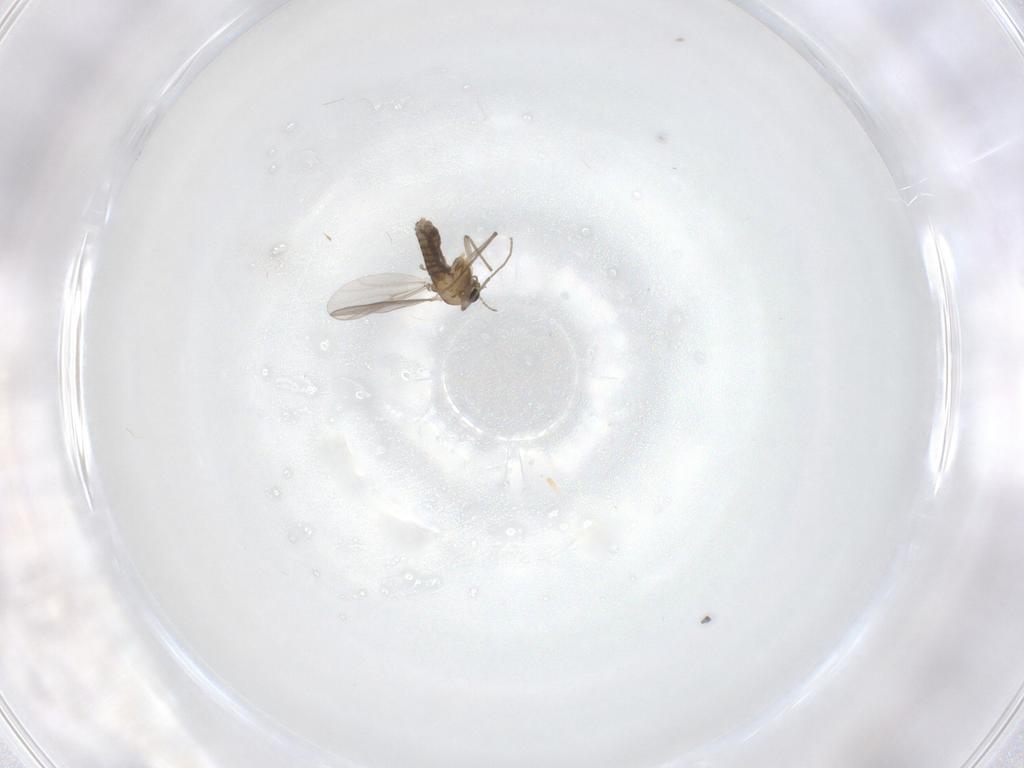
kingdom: Animalia
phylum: Arthropoda
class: Insecta
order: Diptera
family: Chironomidae
